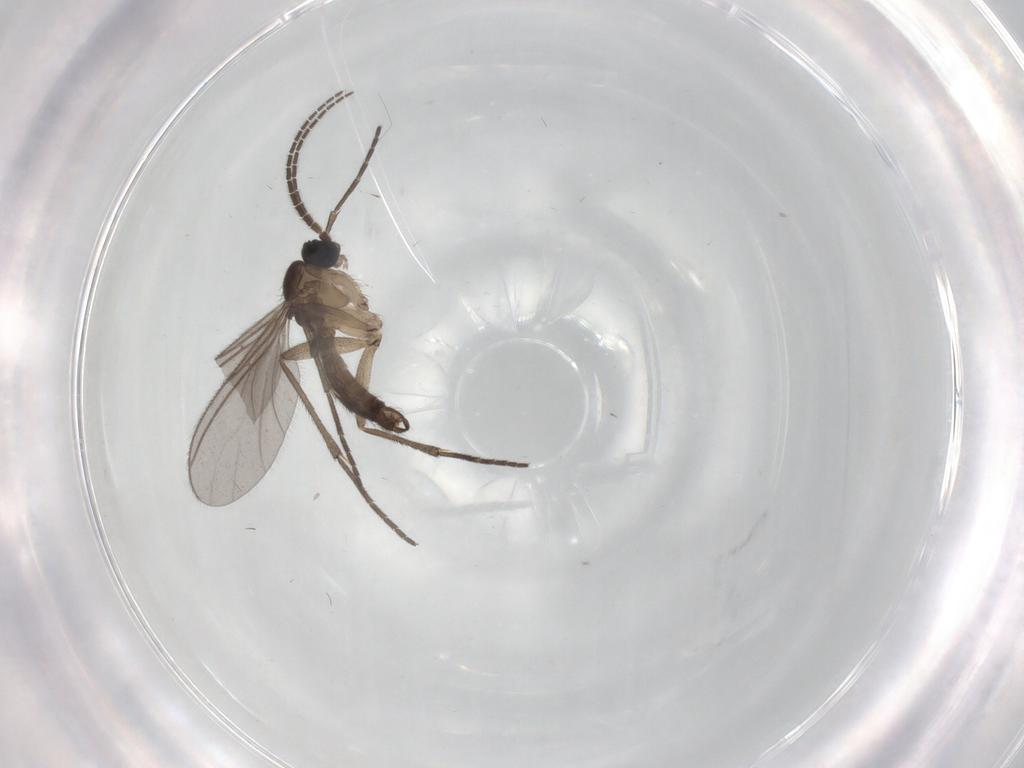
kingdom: Animalia
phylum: Arthropoda
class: Insecta
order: Diptera
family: Sciaridae
